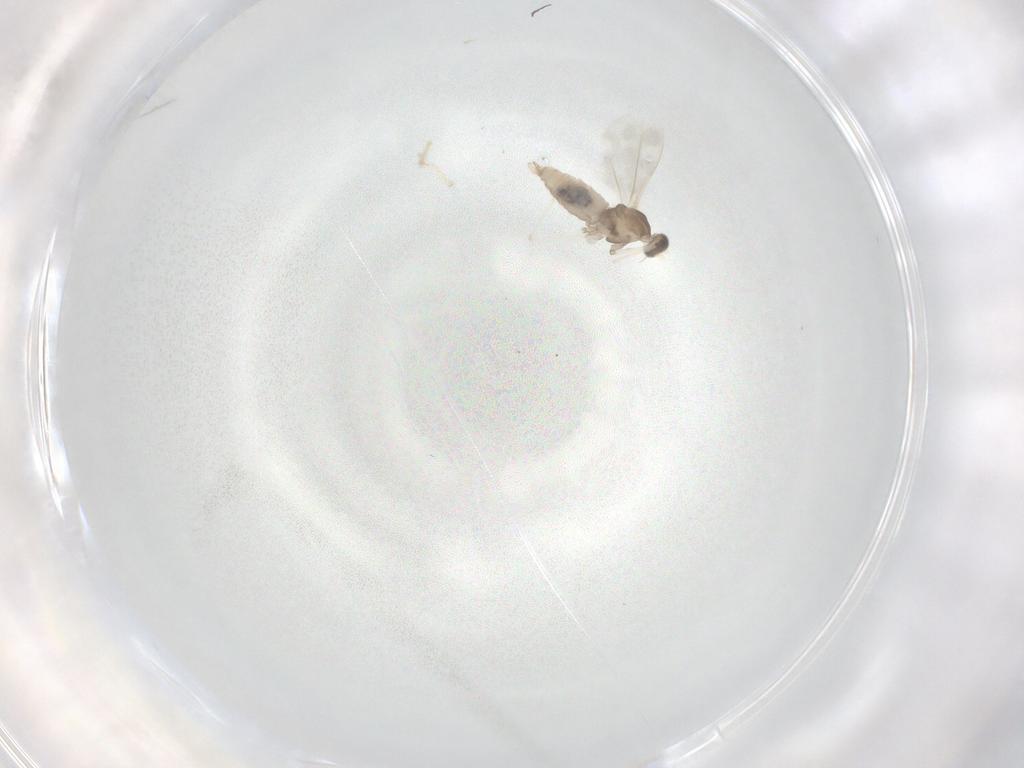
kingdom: Animalia
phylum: Arthropoda
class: Insecta
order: Diptera
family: Cecidomyiidae
